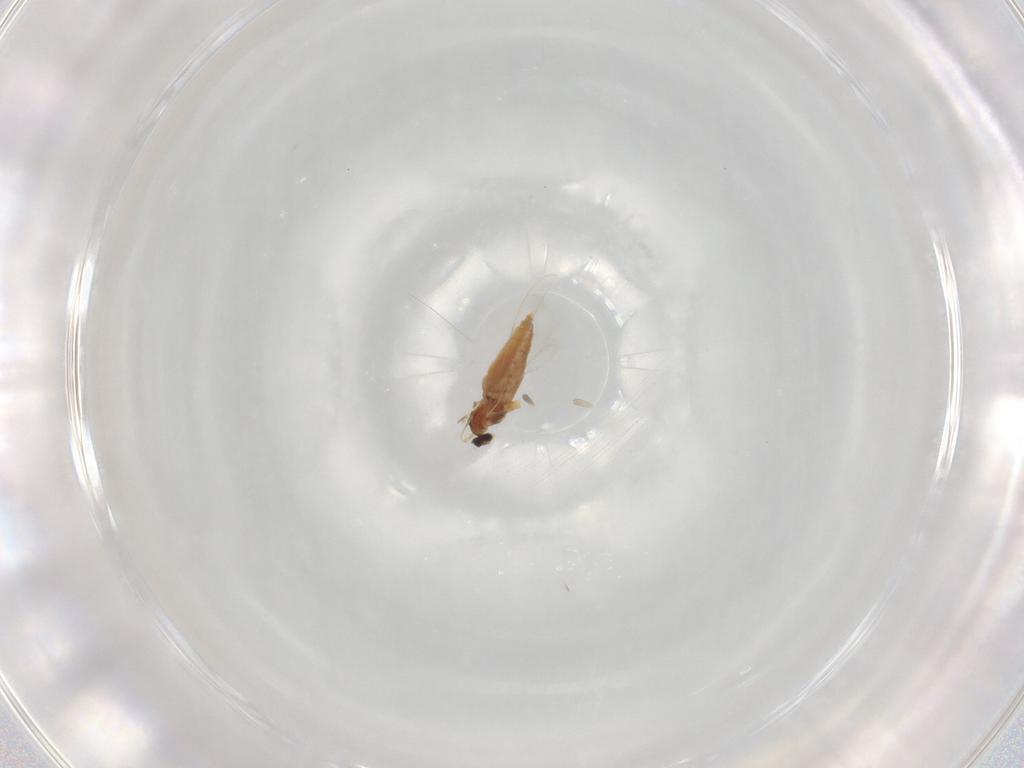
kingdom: Animalia
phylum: Arthropoda
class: Insecta
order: Diptera
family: Cecidomyiidae
